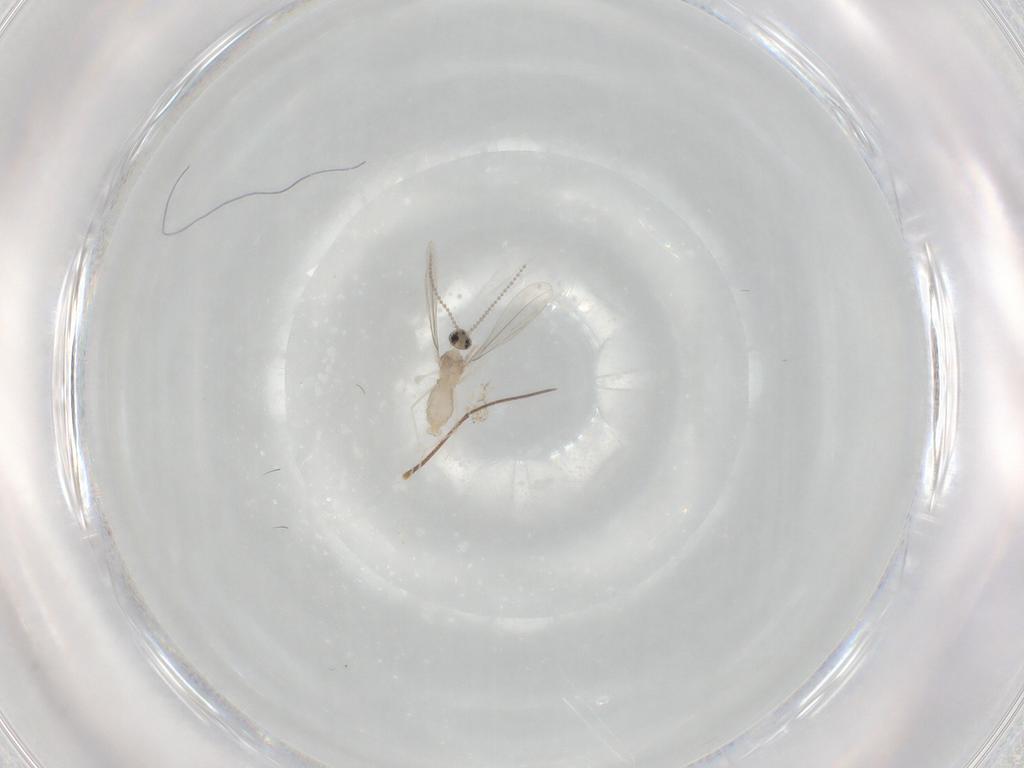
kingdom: Animalia
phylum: Arthropoda
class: Insecta
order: Diptera
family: Cecidomyiidae
